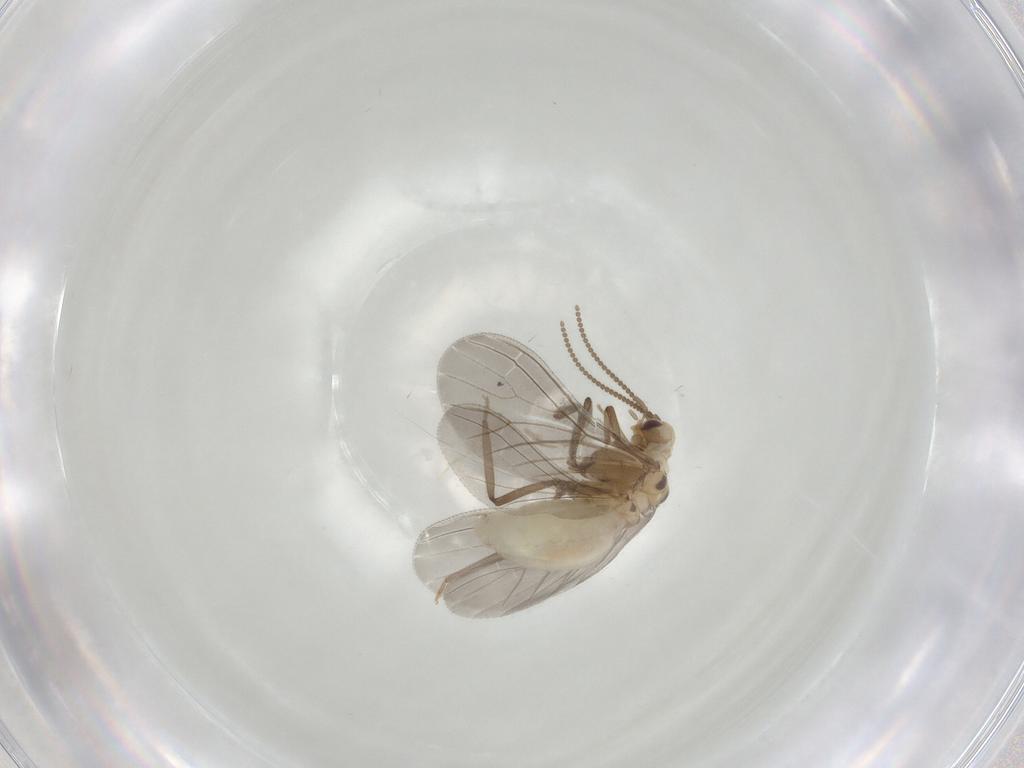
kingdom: Animalia
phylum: Arthropoda
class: Insecta
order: Neuroptera
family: Coniopterygidae
